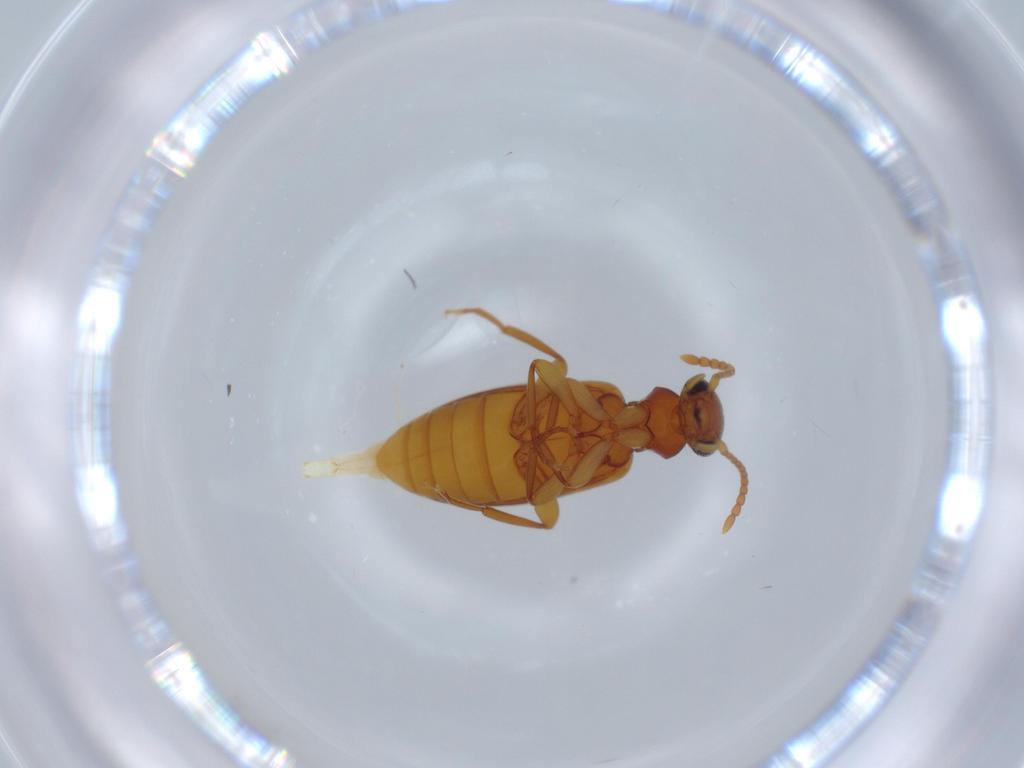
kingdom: Animalia
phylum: Arthropoda
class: Insecta
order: Coleoptera
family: Anthicidae
